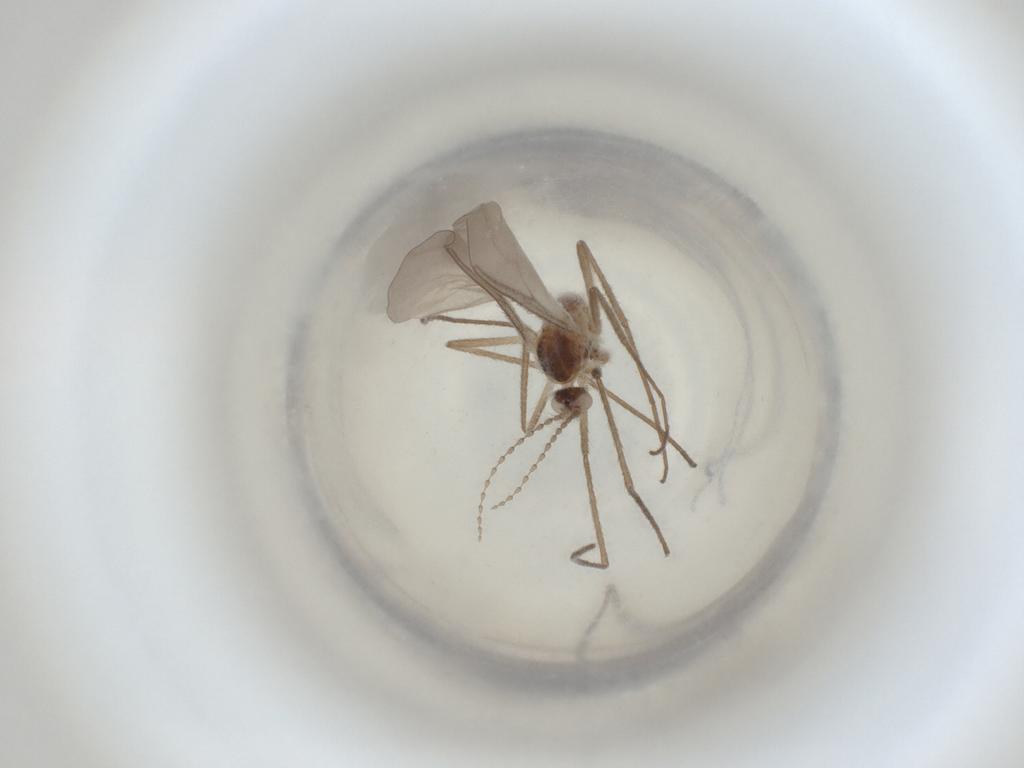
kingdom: Animalia
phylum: Arthropoda
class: Insecta
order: Diptera
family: Cecidomyiidae
